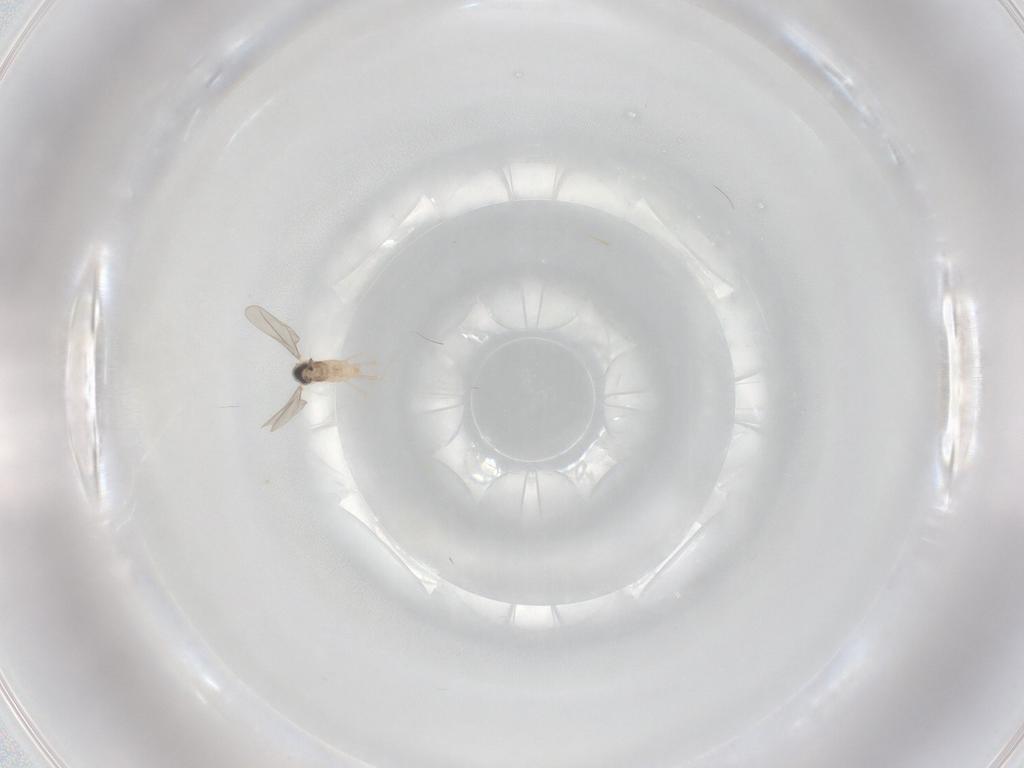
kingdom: Animalia
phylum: Arthropoda
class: Insecta
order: Diptera
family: Cecidomyiidae
